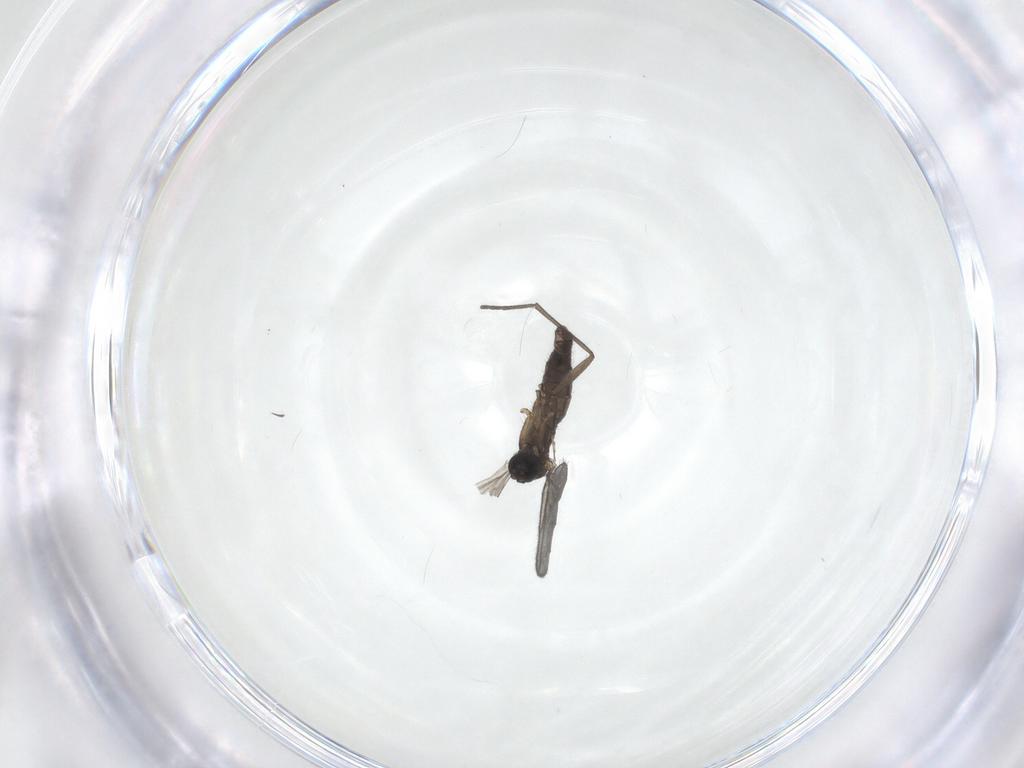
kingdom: Animalia
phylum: Arthropoda
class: Insecta
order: Diptera
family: Sciaridae
